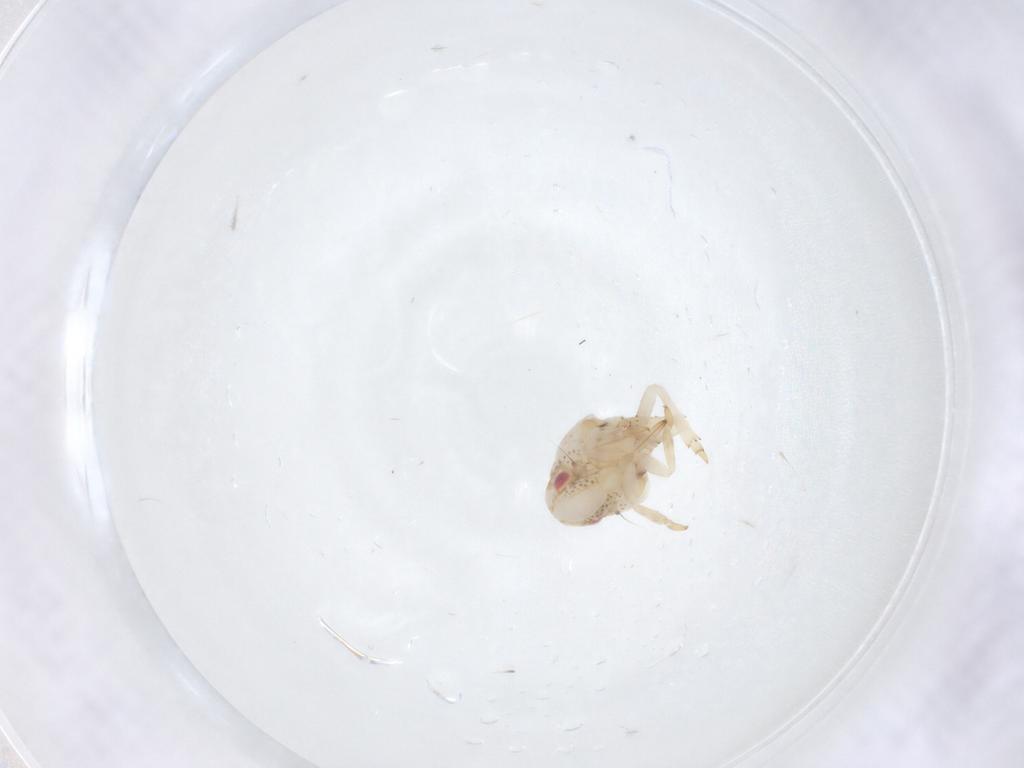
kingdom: Animalia
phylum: Arthropoda
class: Insecta
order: Hemiptera
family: Acanaloniidae
